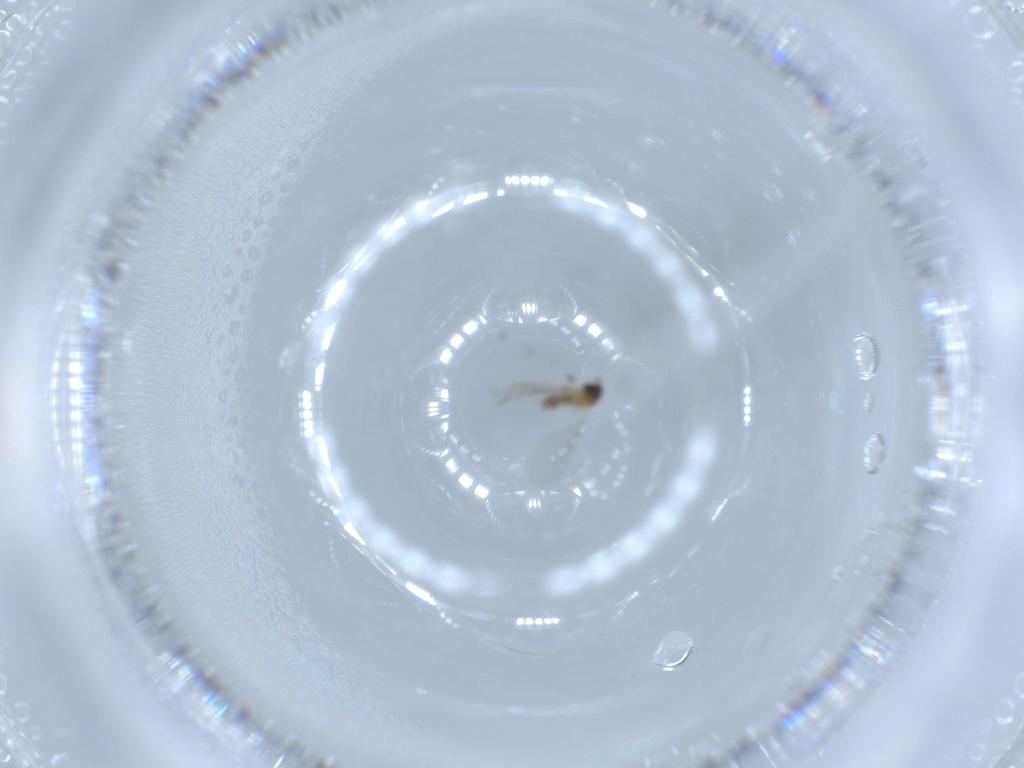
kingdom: Animalia
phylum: Arthropoda
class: Insecta
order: Diptera
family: Cecidomyiidae
